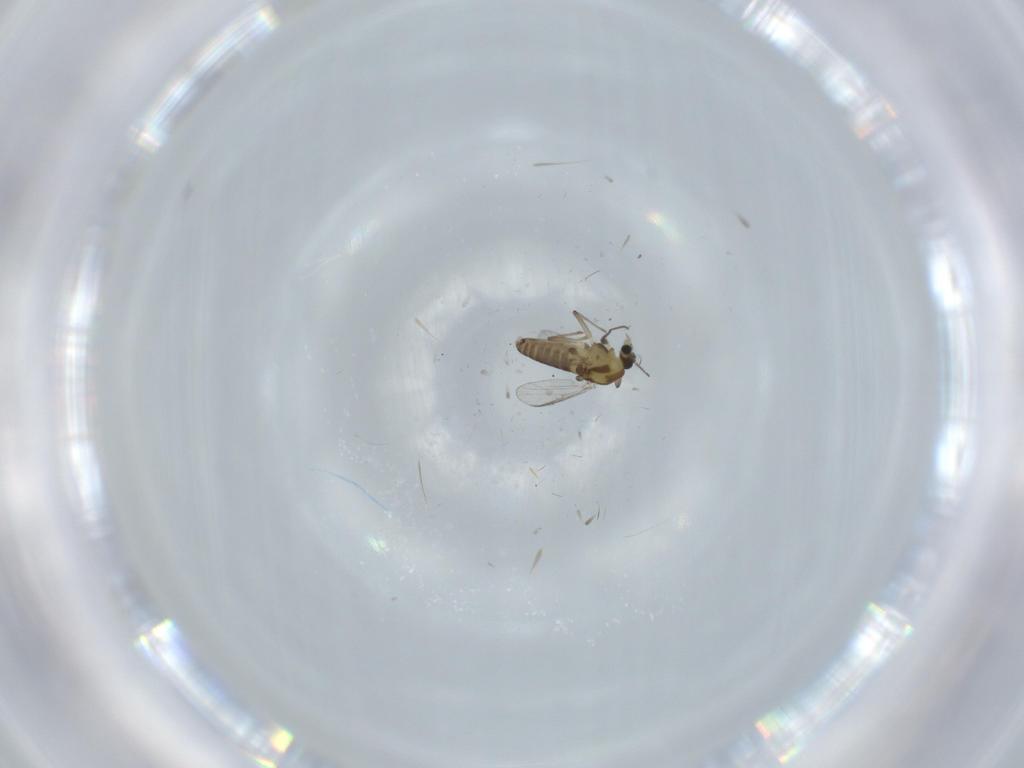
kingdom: Animalia
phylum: Arthropoda
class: Insecta
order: Diptera
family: Chironomidae
